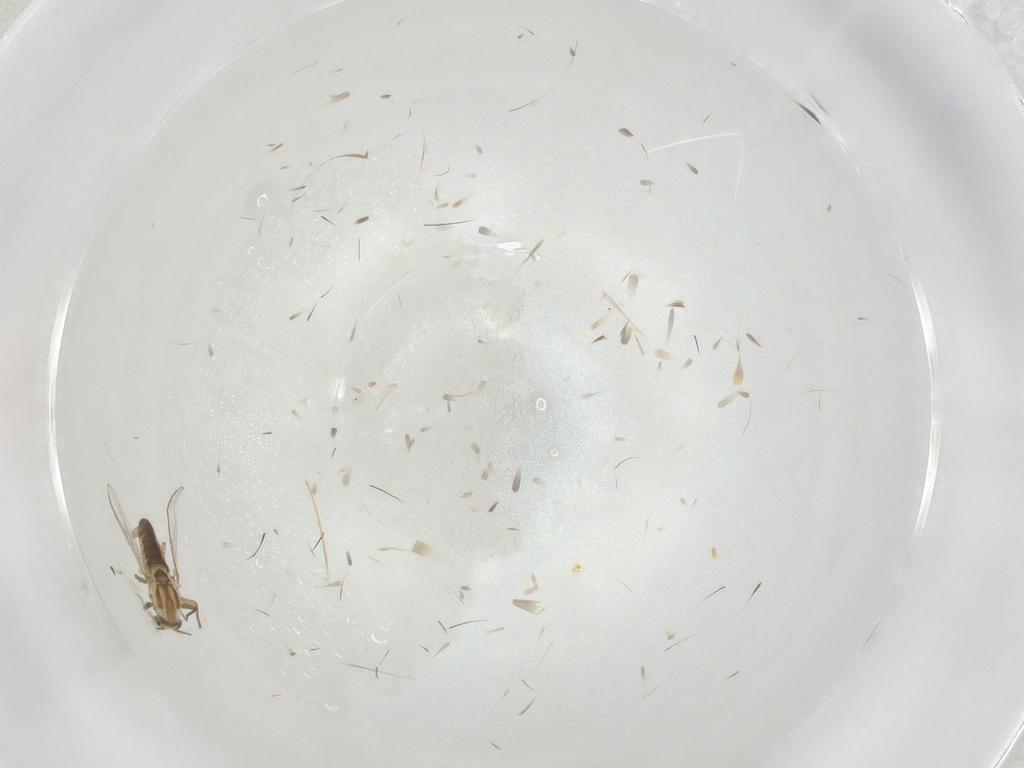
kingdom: Animalia
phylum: Arthropoda
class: Insecta
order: Diptera
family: Chironomidae
